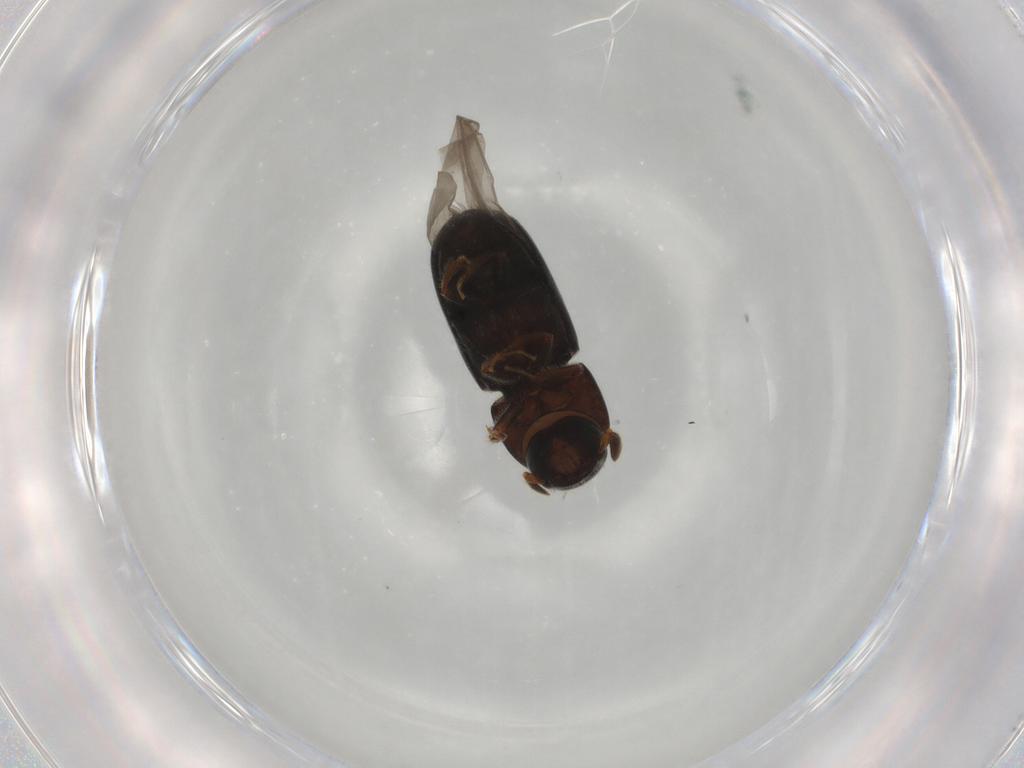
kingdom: Animalia
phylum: Arthropoda
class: Insecta
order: Coleoptera
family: Curculionidae
